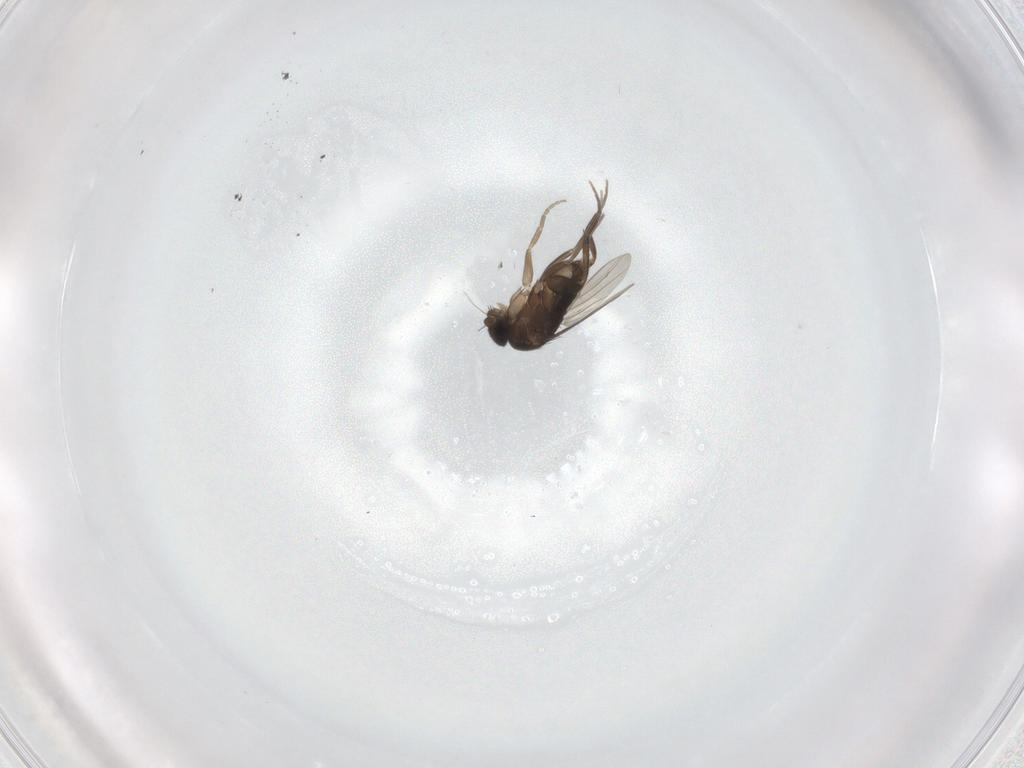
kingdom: Animalia
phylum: Arthropoda
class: Insecta
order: Diptera
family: Phoridae
